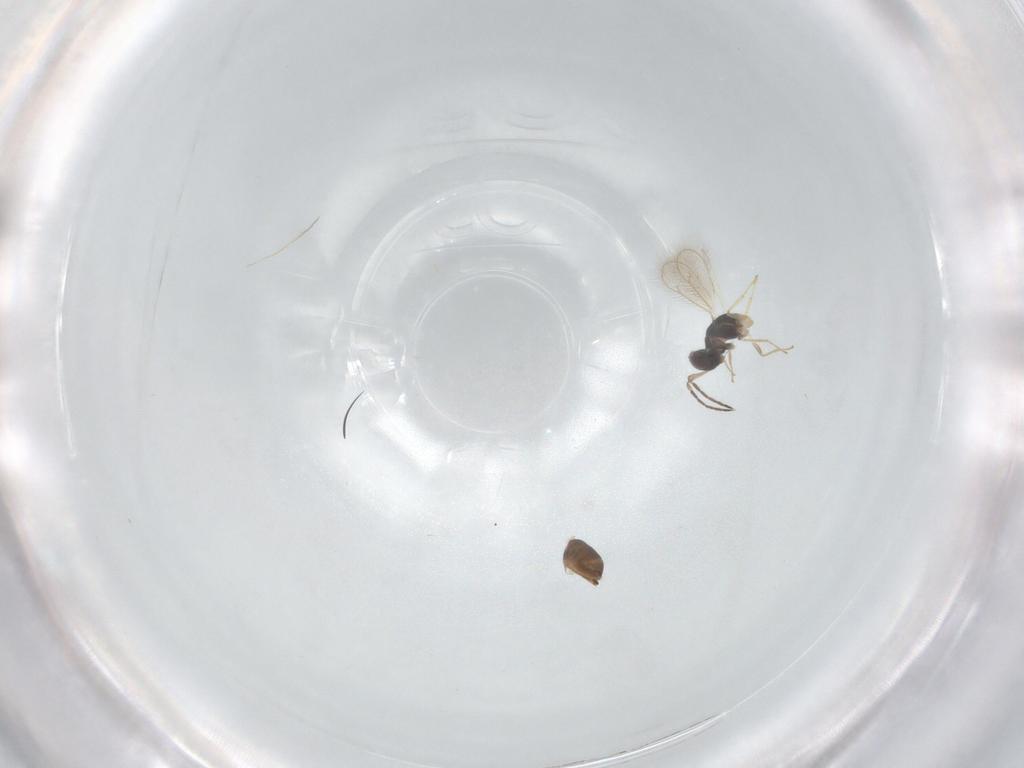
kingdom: Animalia
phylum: Arthropoda
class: Insecta
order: Hymenoptera
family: Eulophidae
